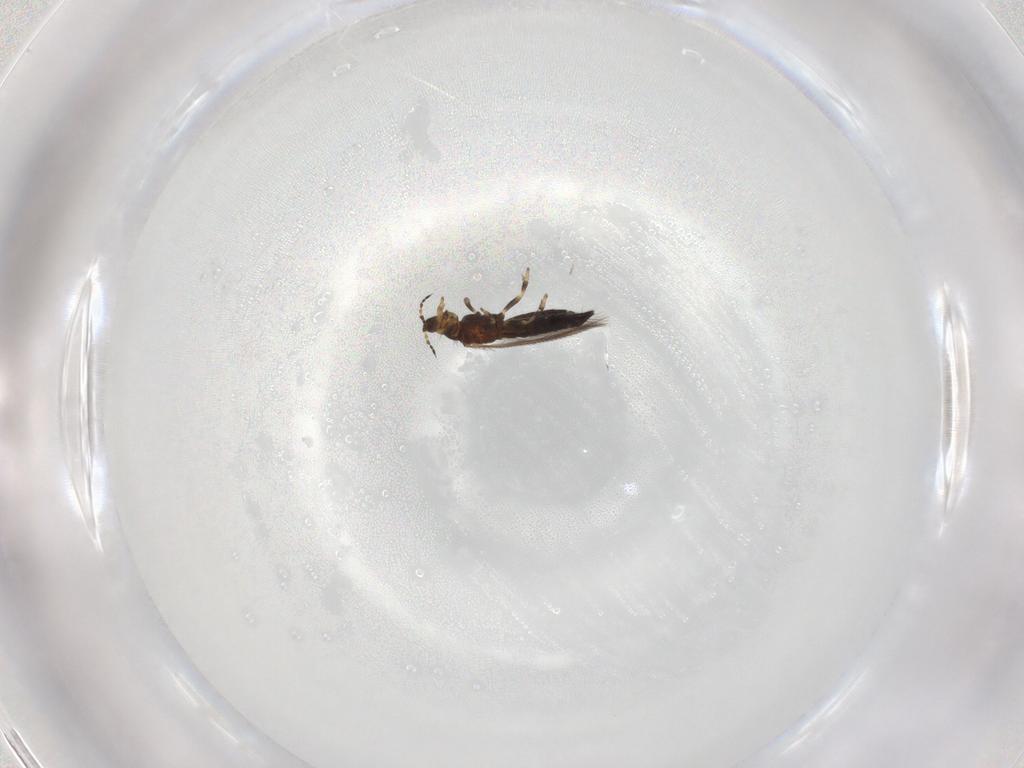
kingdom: Animalia
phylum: Arthropoda
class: Insecta
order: Thysanoptera
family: Thripidae
